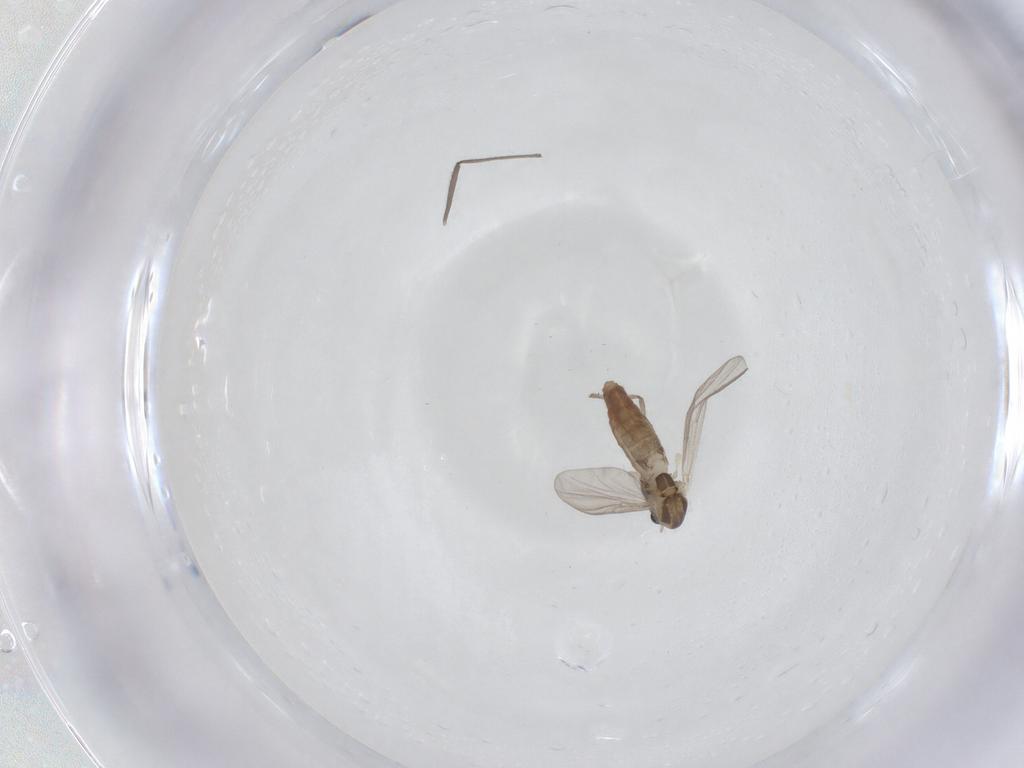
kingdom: Animalia
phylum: Arthropoda
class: Insecta
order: Diptera
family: Chironomidae
